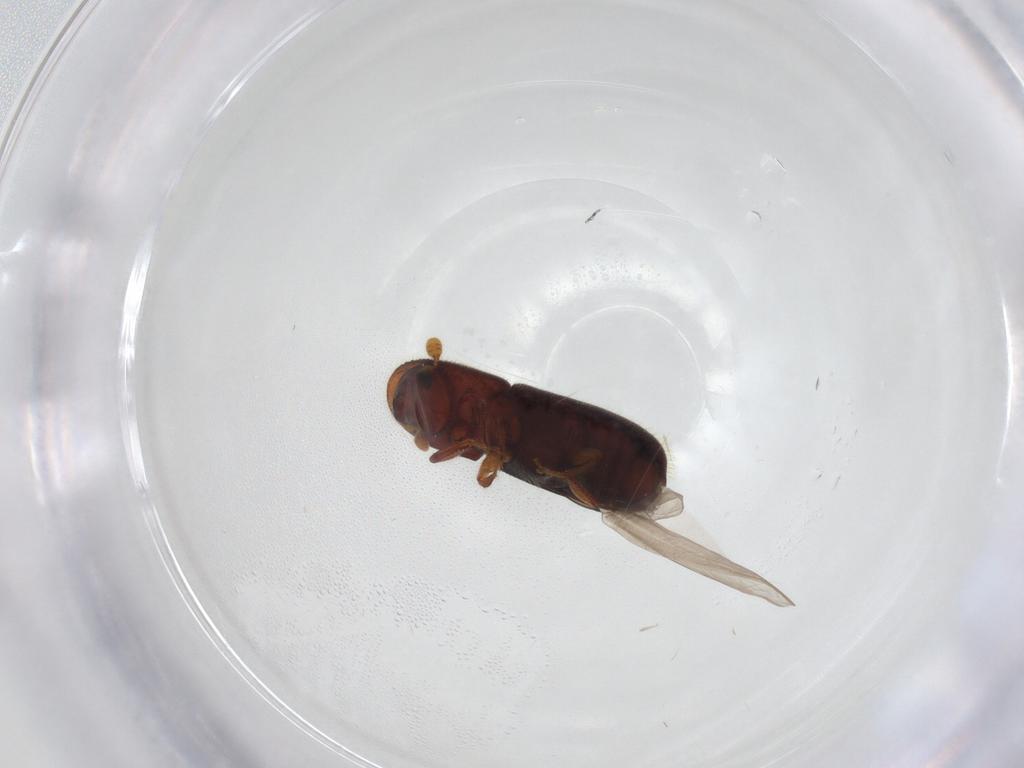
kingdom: Animalia
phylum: Arthropoda
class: Insecta
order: Coleoptera
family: Curculionidae
